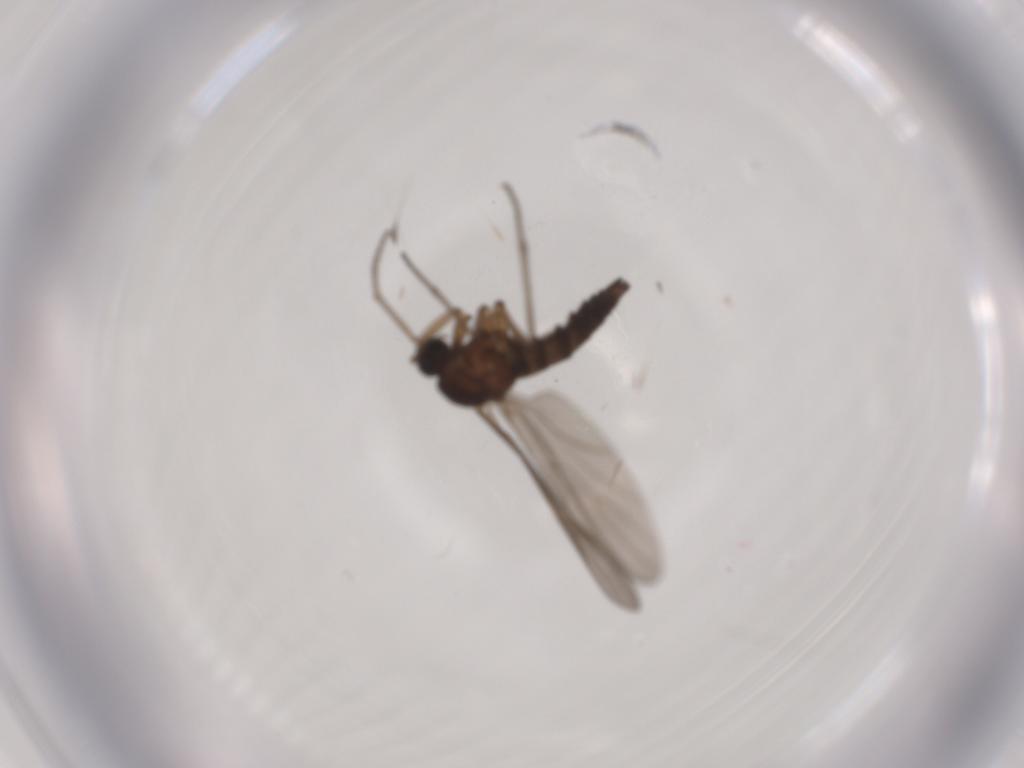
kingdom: Animalia
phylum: Arthropoda
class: Insecta
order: Diptera
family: Sciaridae
